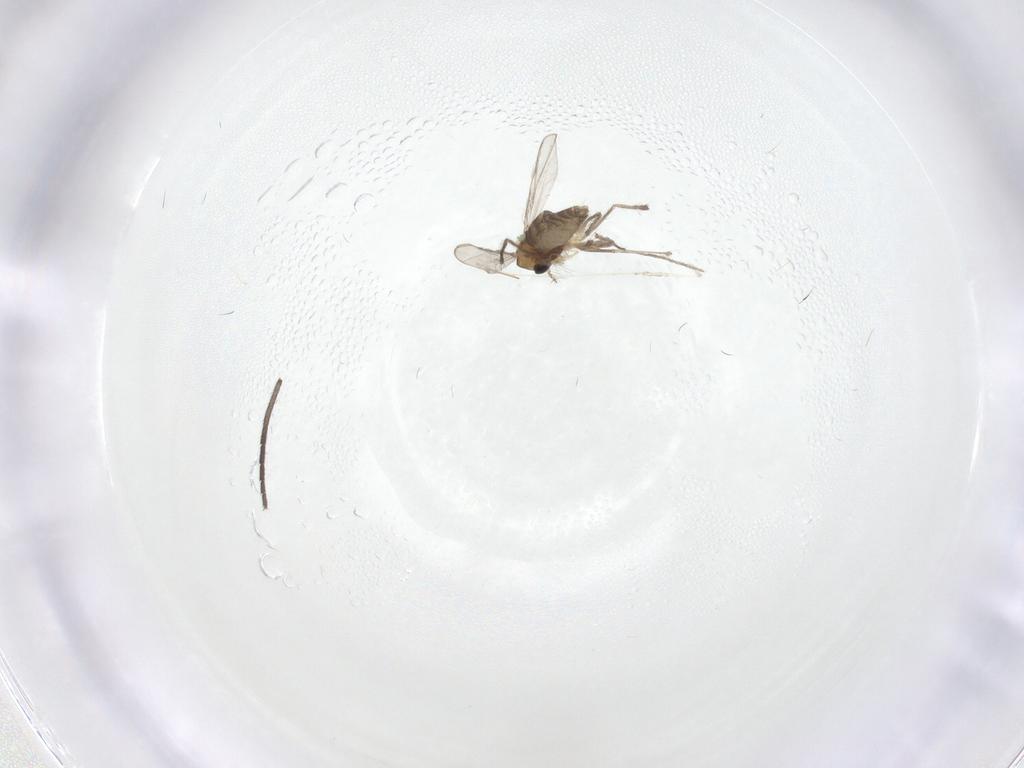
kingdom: Animalia
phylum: Arthropoda
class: Insecta
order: Diptera
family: Chironomidae
